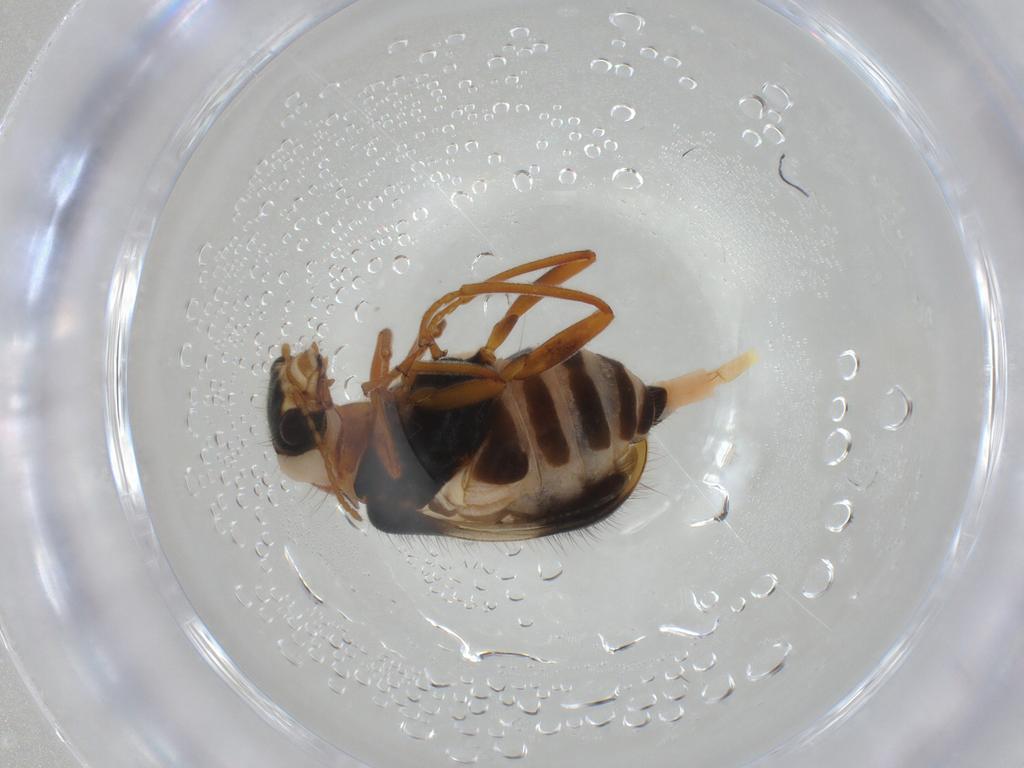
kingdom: Animalia
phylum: Arthropoda
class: Insecta
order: Coleoptera
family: Melyridae
